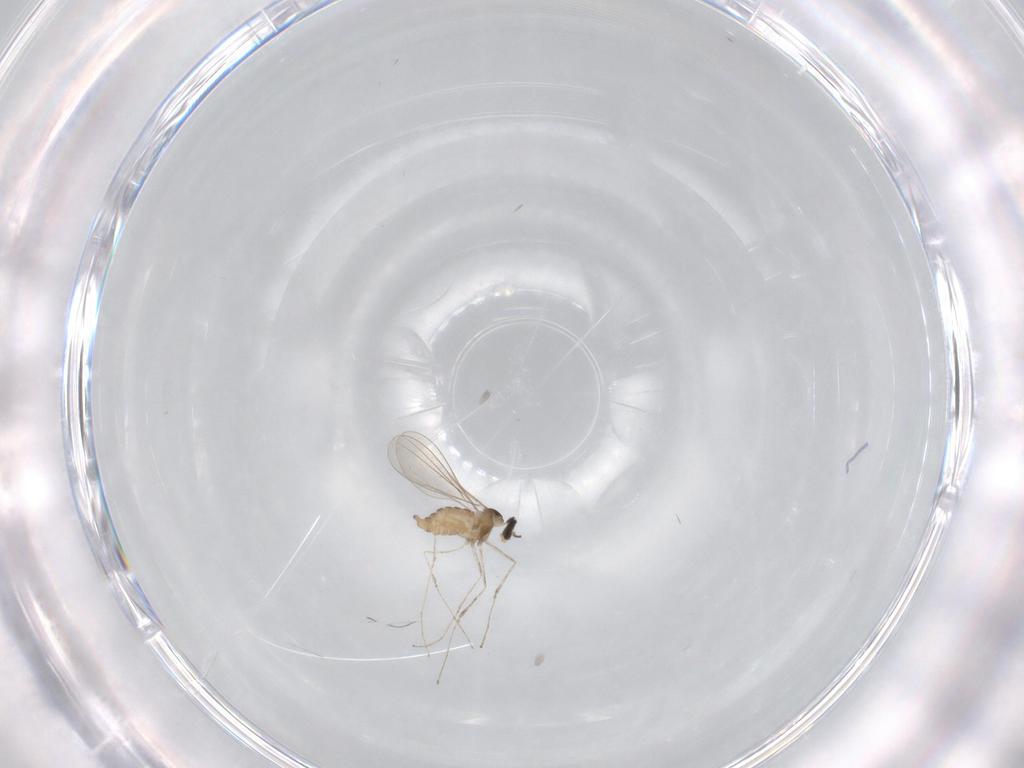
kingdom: Animalia
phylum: Arthropoda
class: Insecta
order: Diptera
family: Cecidomyiidae
